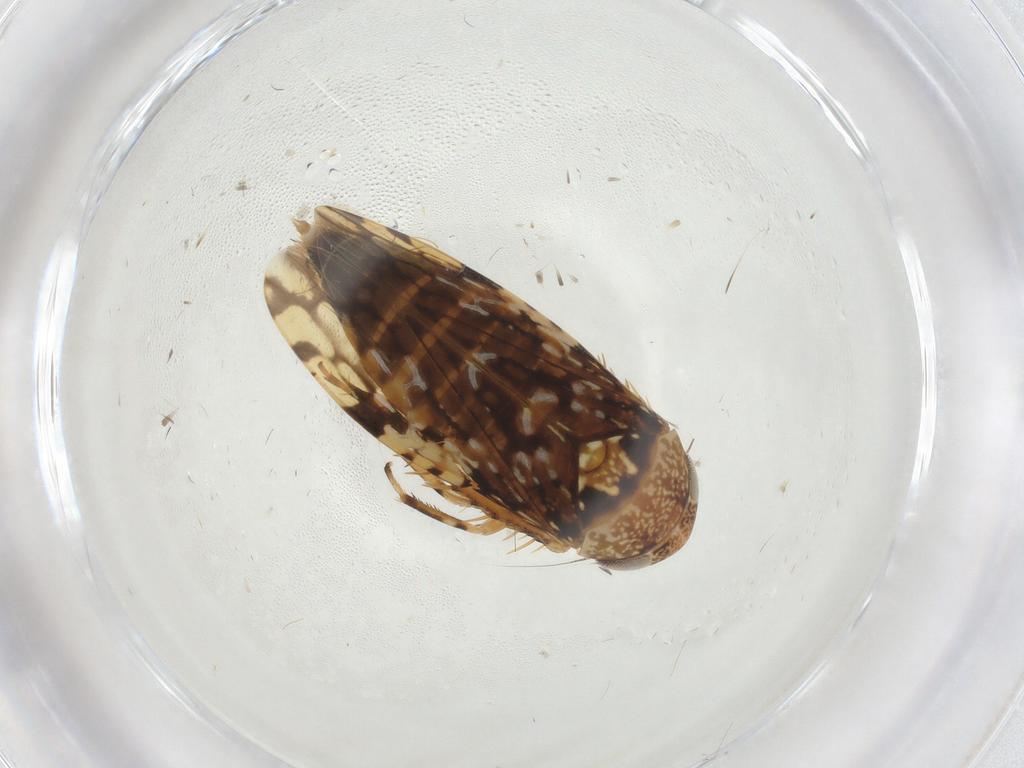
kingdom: Animalia
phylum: Arthropoda
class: Insecta
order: Hemiptera
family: Cicadellidae
